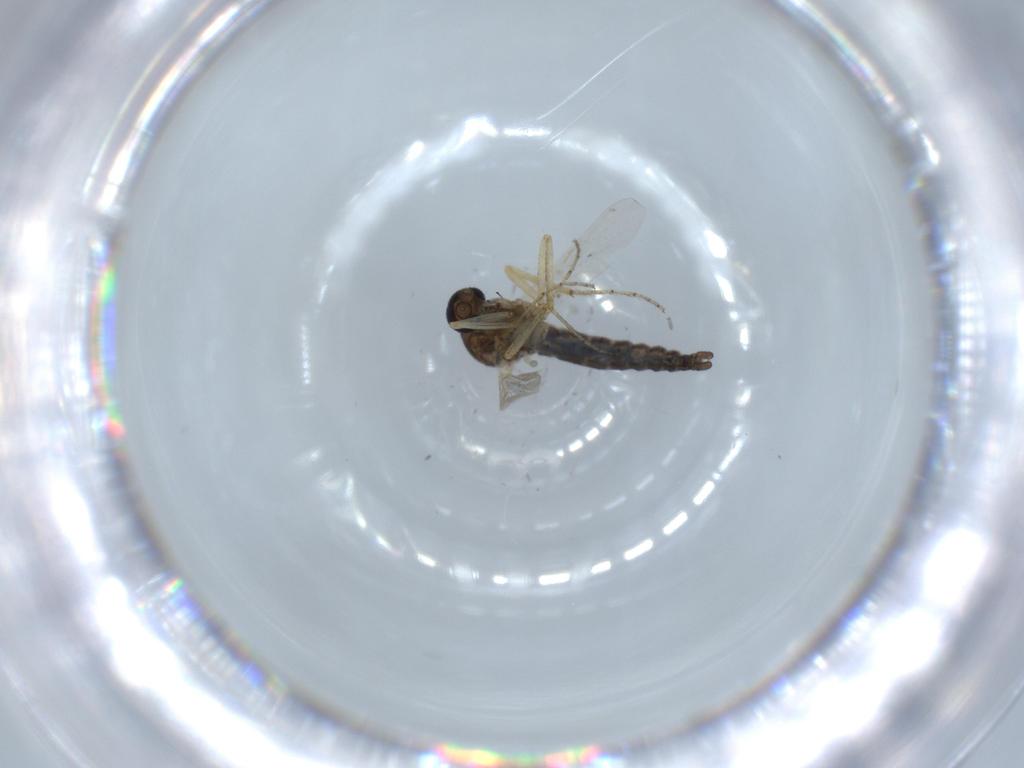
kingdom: Animalia
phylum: Arthropoda
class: Insecta
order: Diptera
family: Ceratopogonidae
